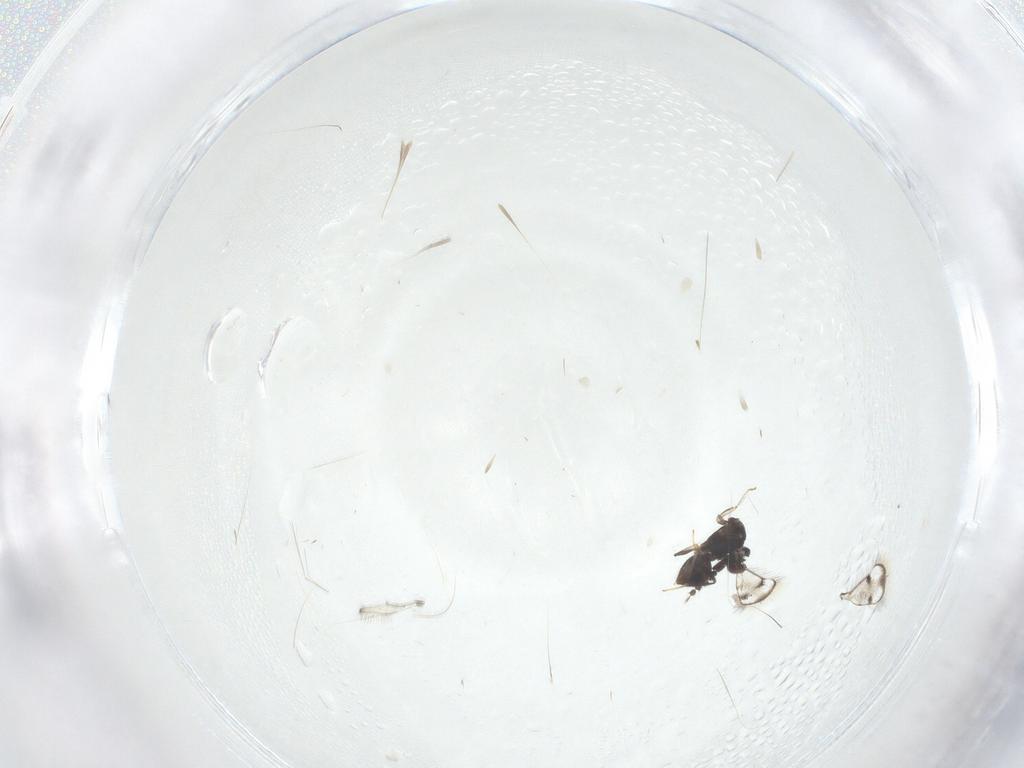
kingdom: Animalia
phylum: Arthropoda
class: Insecta
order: Hymenoptera
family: Eulophidae
